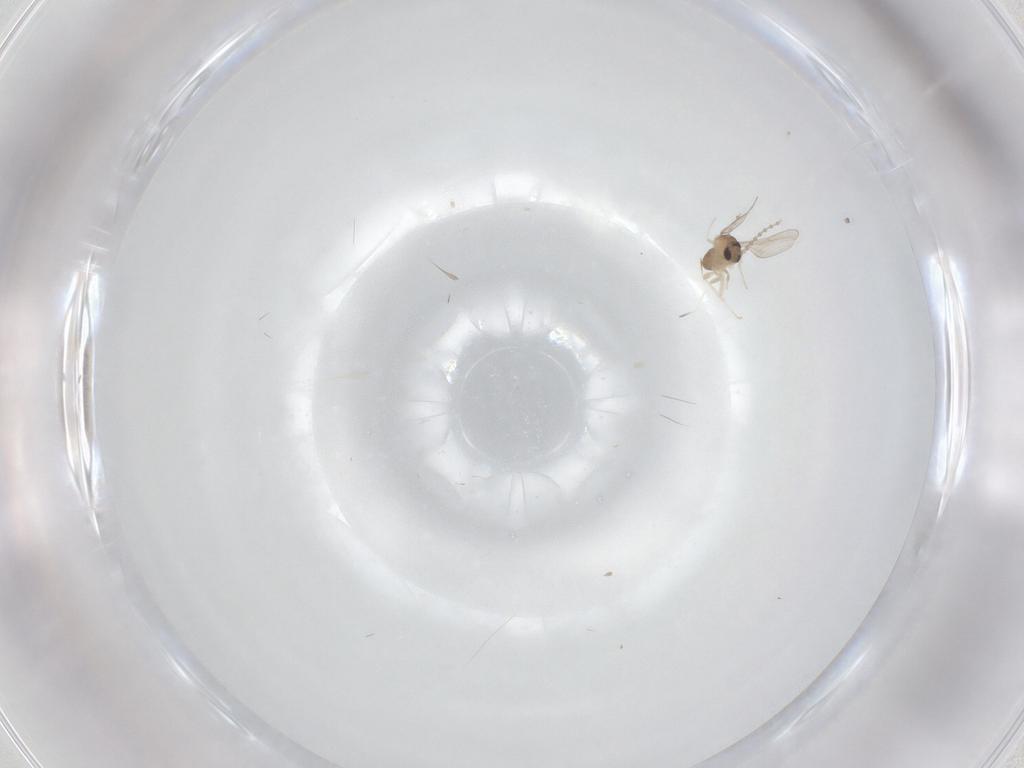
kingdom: Animalia
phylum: Arthropoda
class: Insecta
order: Diptera
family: Cecidomyiidae
